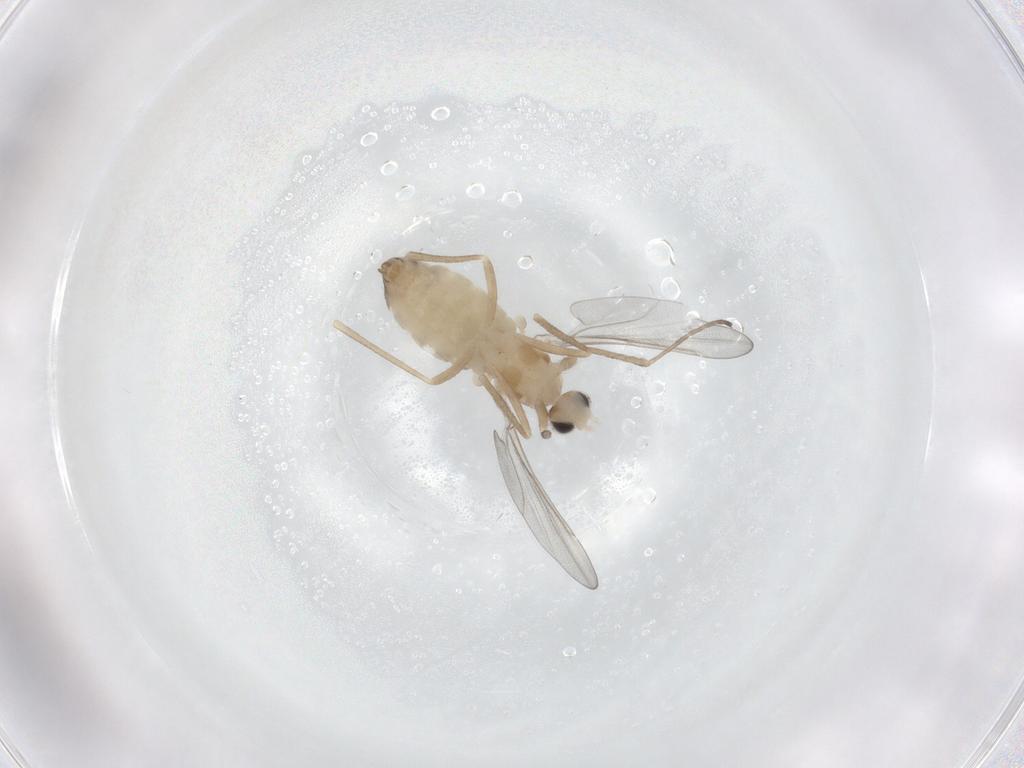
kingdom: Animalia
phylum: Arthropoda
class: Insecta
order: Diptera
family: Cecidomyiidae
